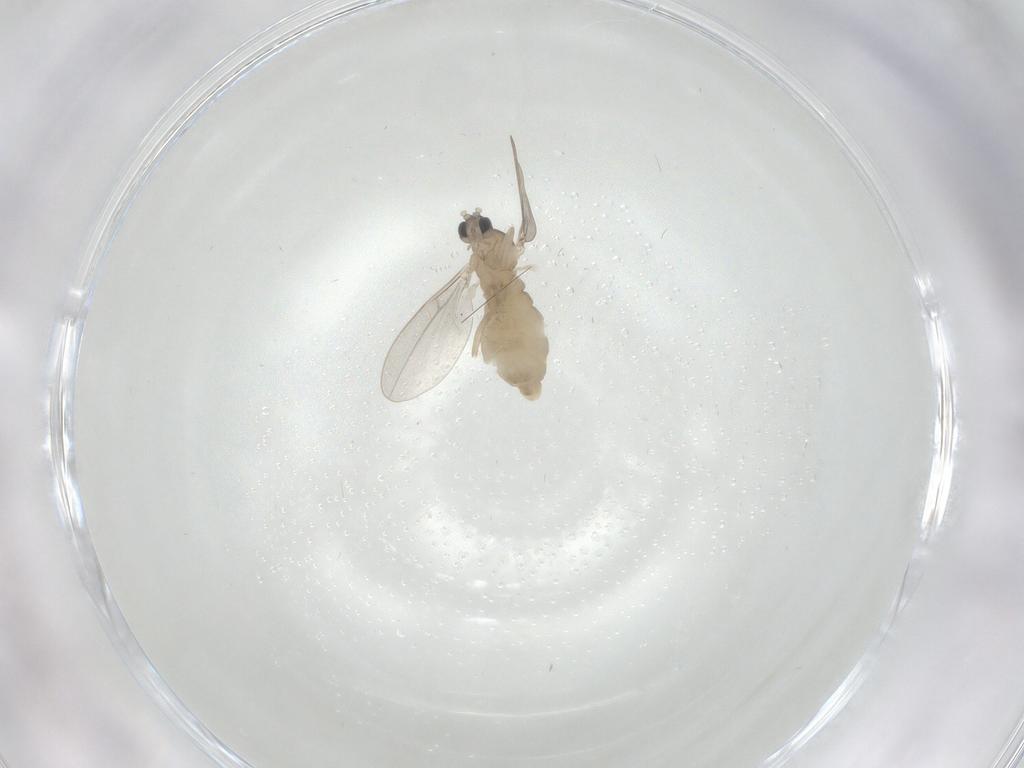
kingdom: Animalia
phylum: Arthropoda
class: Insecta
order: Diptera
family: Cecidomyiidae
